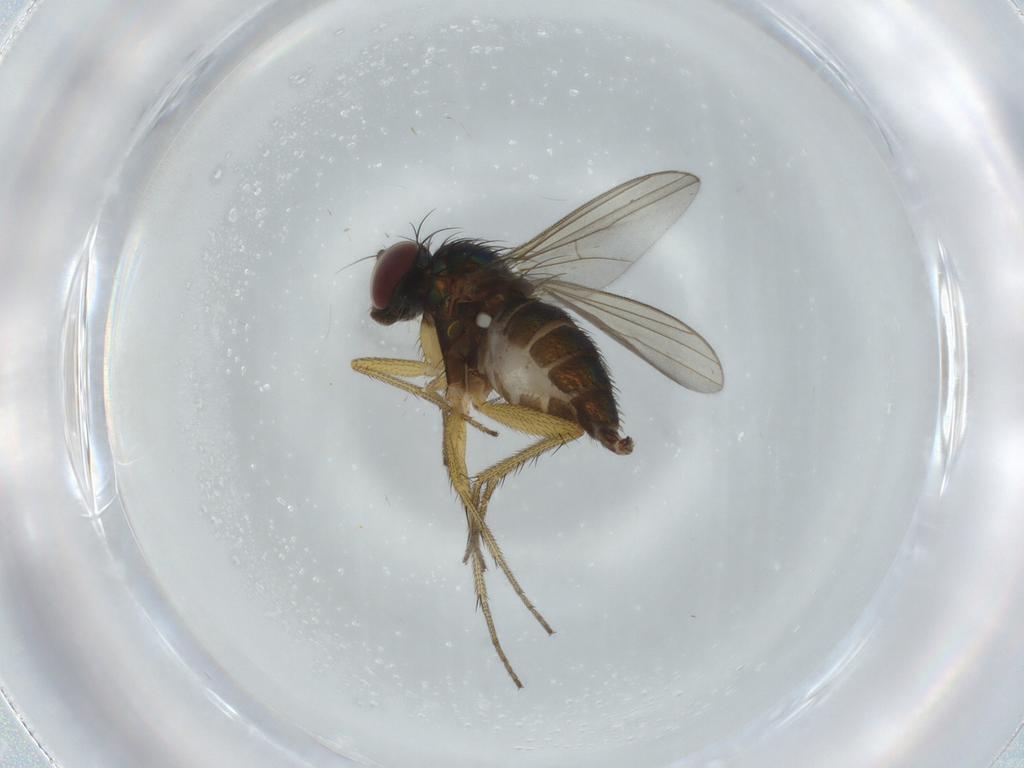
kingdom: Animalia
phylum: Arthropoda
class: Insecta
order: Diptera
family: Dolichopodidae
